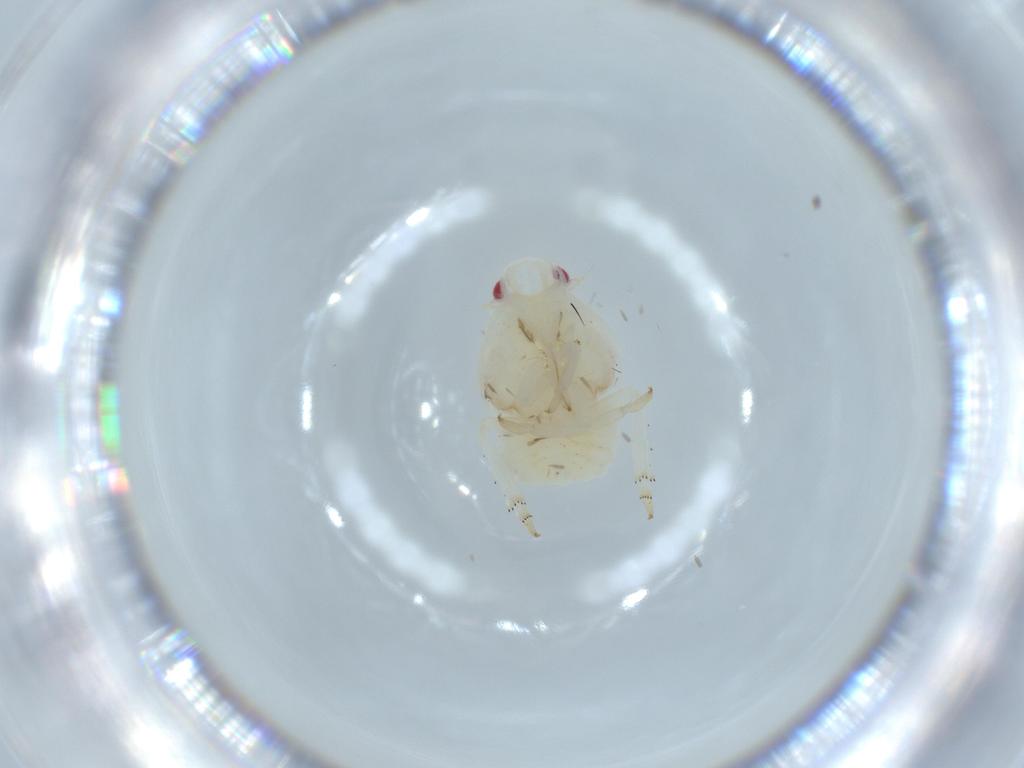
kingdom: Animalia
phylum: Arthropoda
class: Insecta
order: Hemiptera
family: Flatidae
